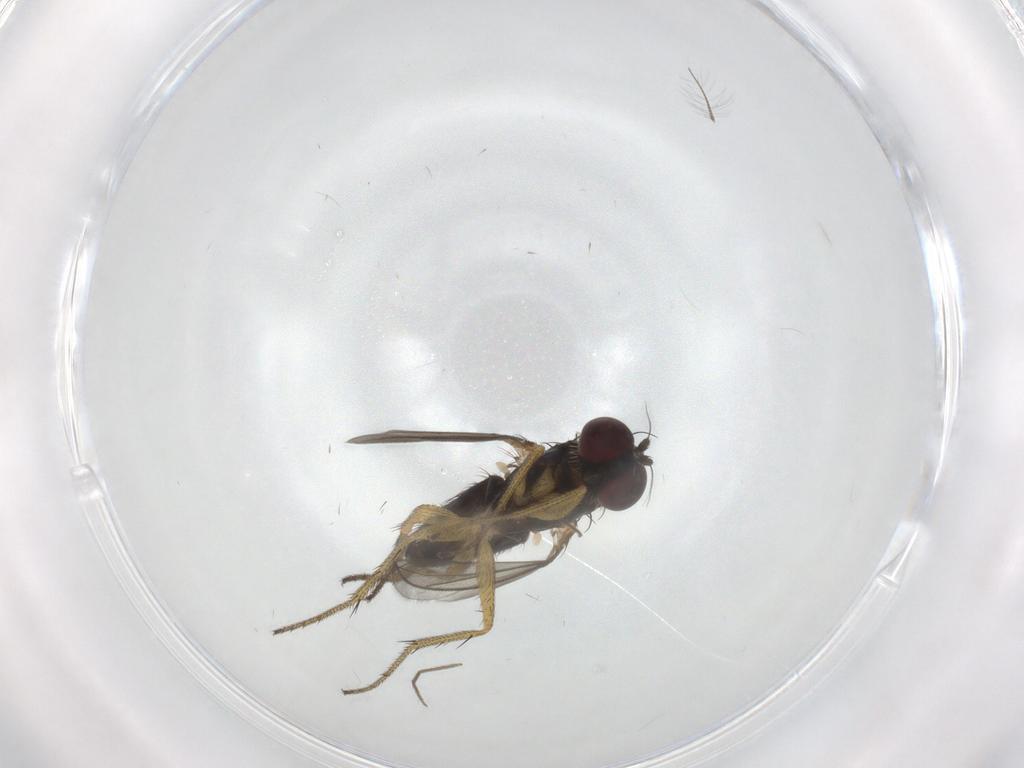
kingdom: Animalia
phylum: Arthropoda
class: Insecta
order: Diptera
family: Dolichopodidae
